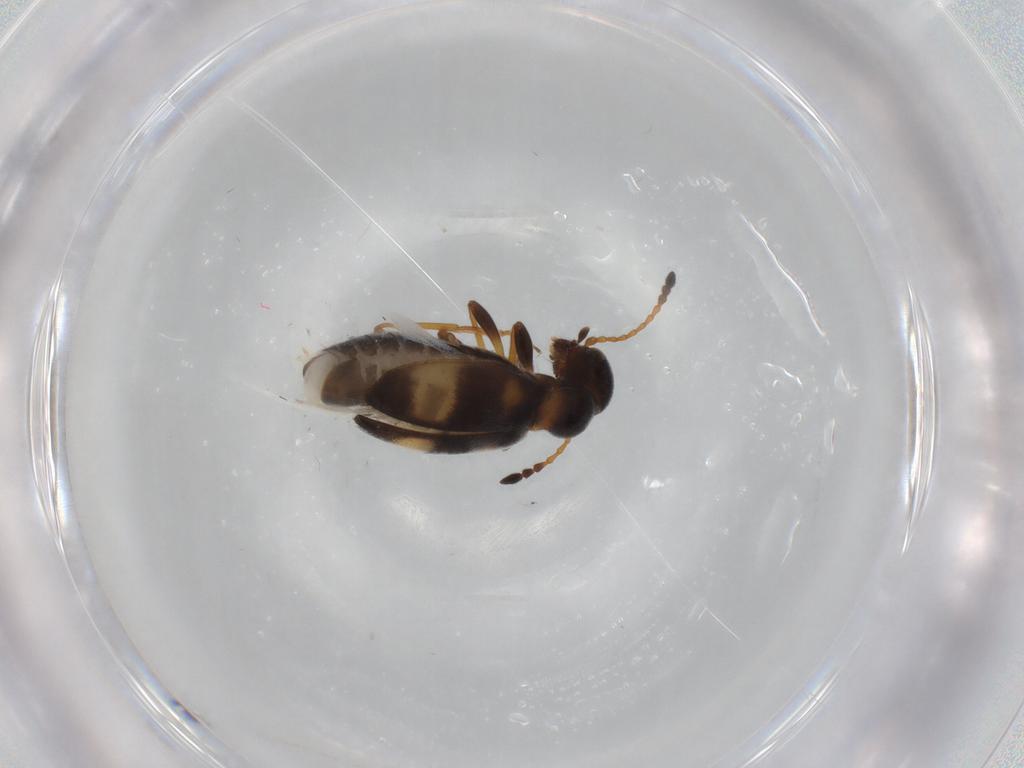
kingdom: Animalia
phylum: Arthropoda
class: Insecta
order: Coleoptera
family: Anthicidae
